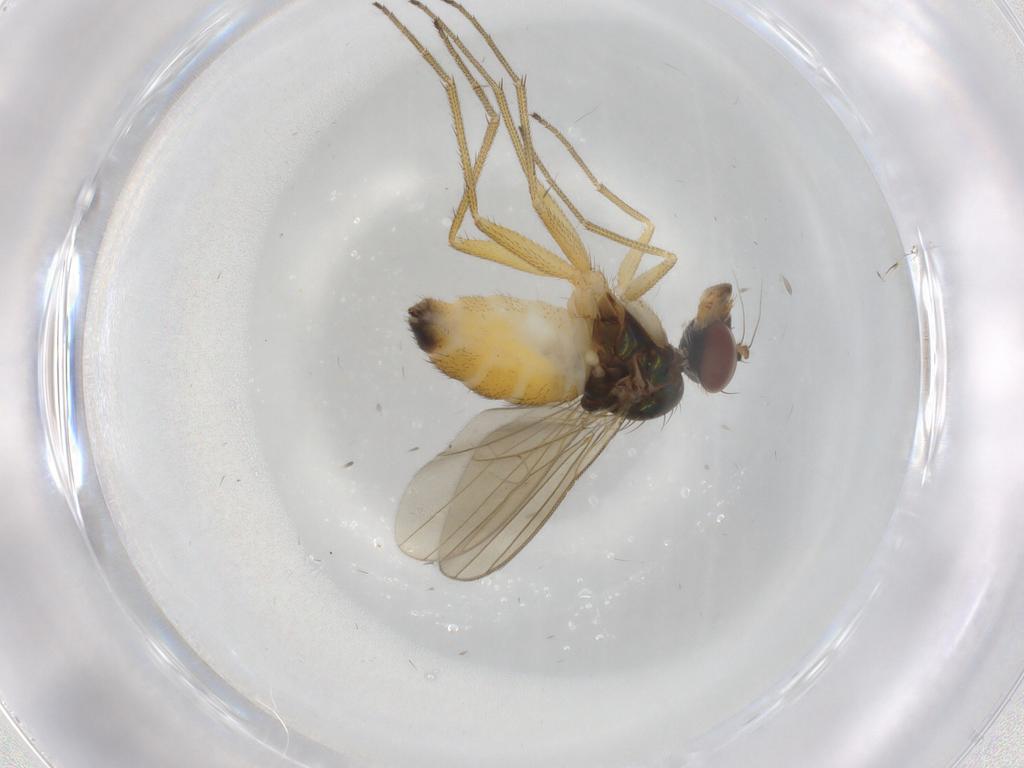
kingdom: Animalia
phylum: Arthropoda
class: Insecta
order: Diptera
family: Dolichopodidae
